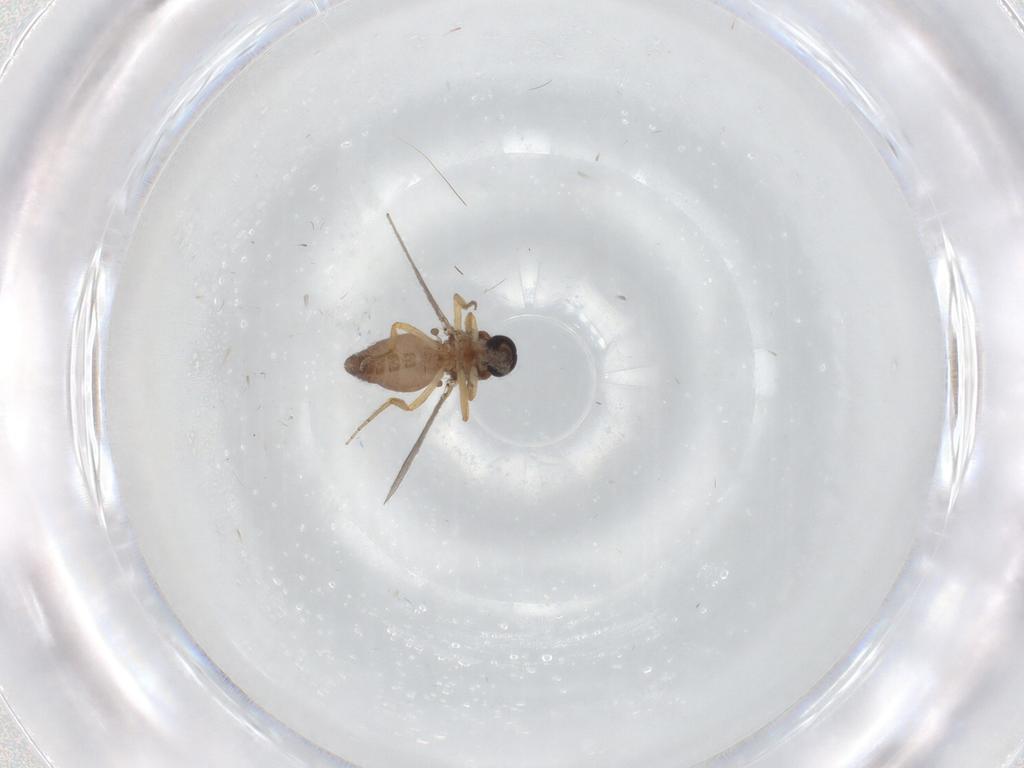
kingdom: Animalia
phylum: Arthropoda
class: Insecta
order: Diptera
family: Ceratopogonidae
